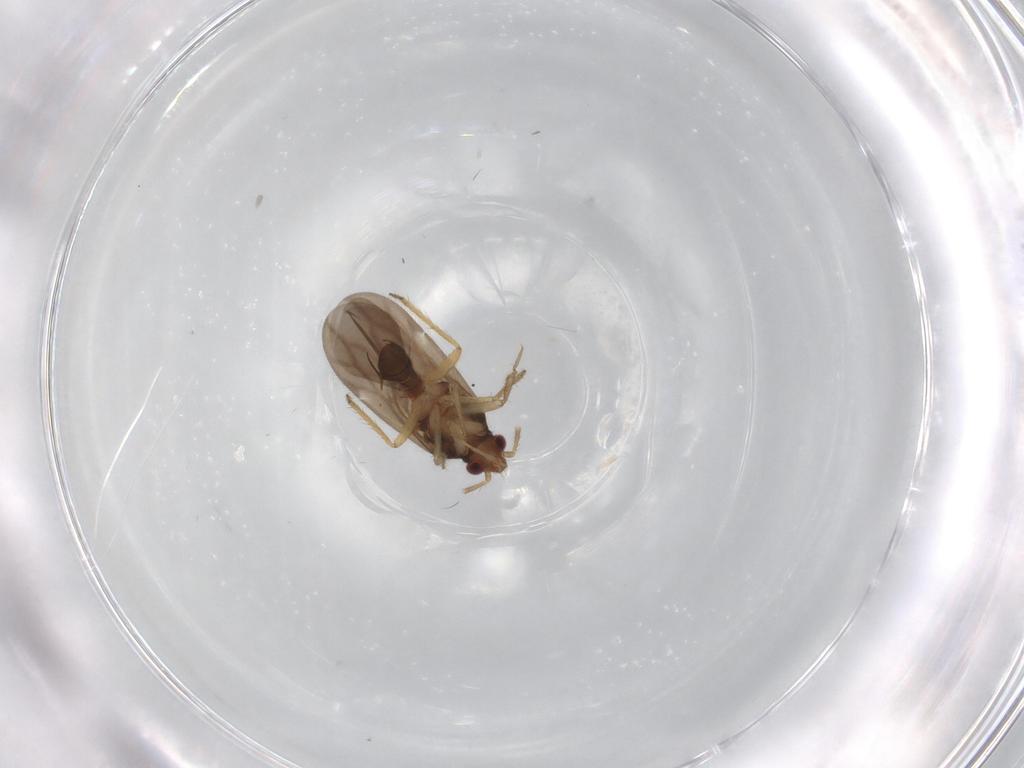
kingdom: Animalia
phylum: Arthropoda
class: Insecta
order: Hemiptera
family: Ceratocombidae
